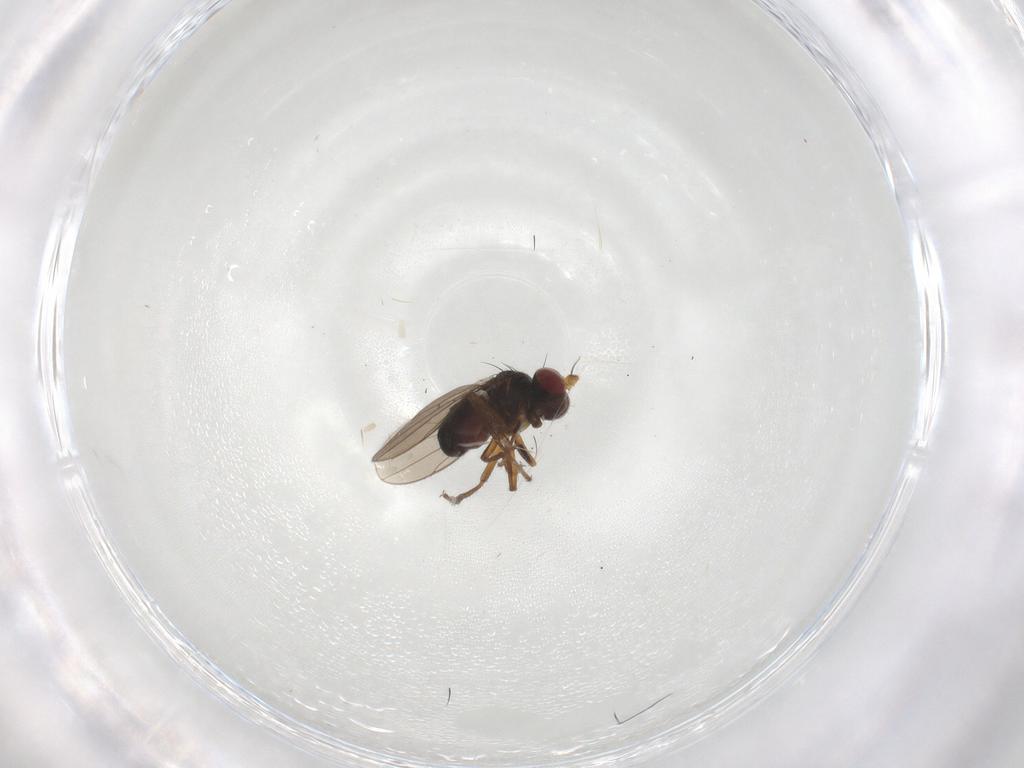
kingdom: Animalia
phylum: Arthropoda
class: Insecta
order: Diptera
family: Ephydridae
